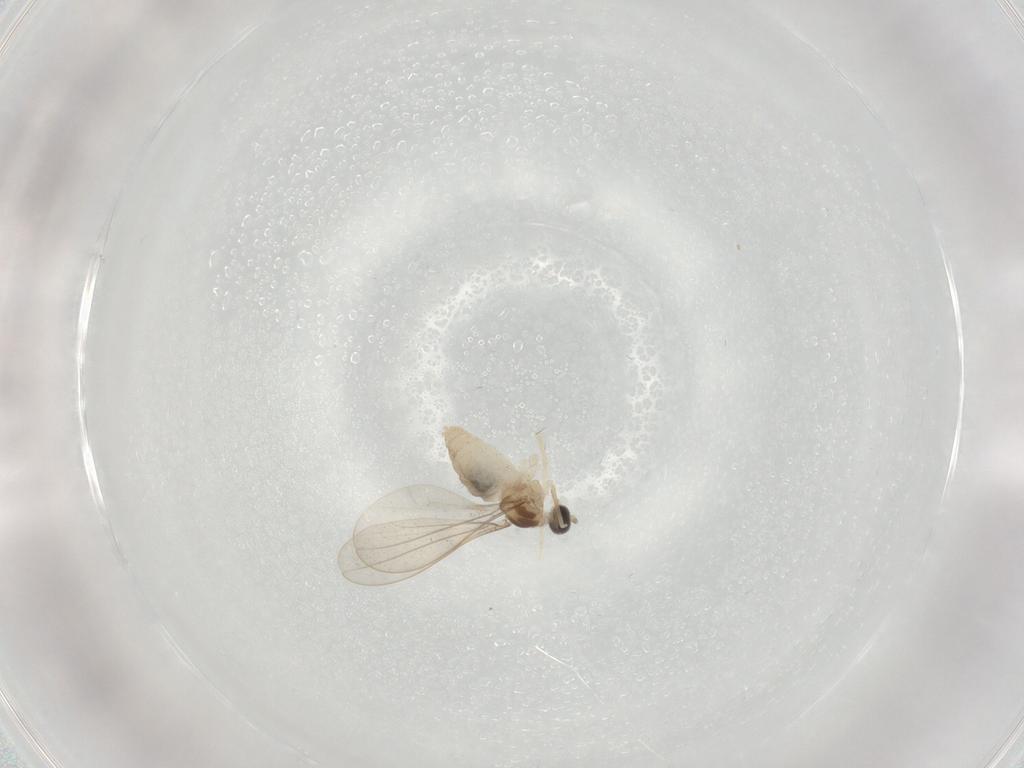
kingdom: Animalia
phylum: Arthropoda
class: Insecta
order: Diptera
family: Cecidomyiidae
